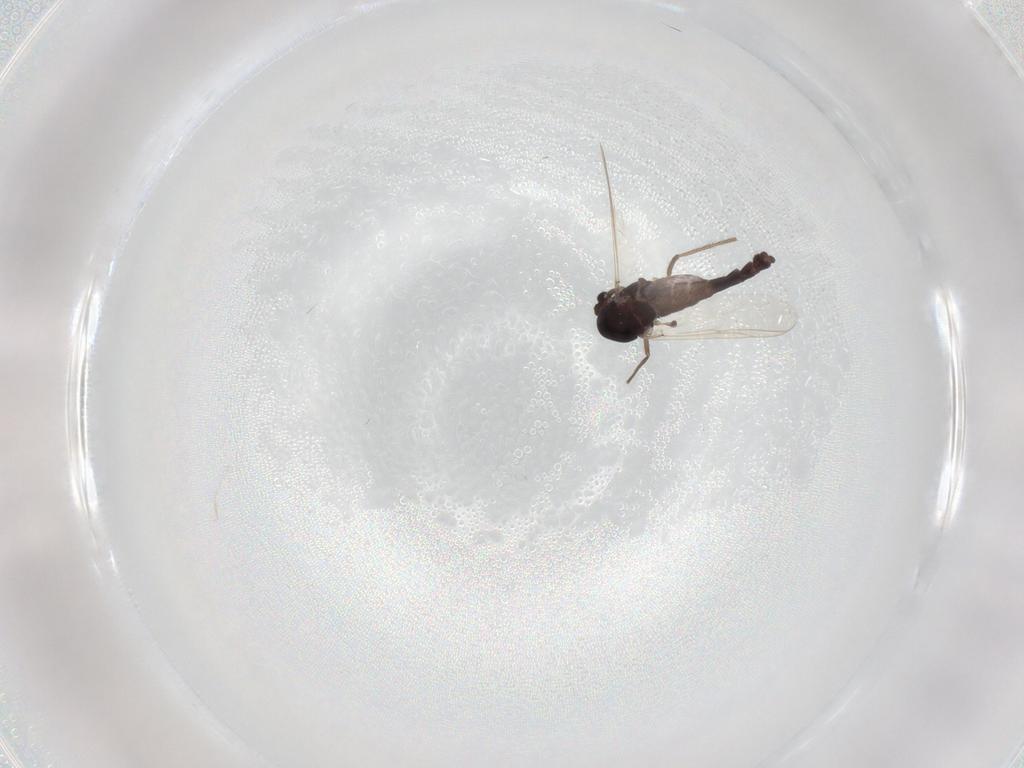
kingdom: Animalia
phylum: Arthropoda
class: Insecta
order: Diptera
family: Chironomidae
